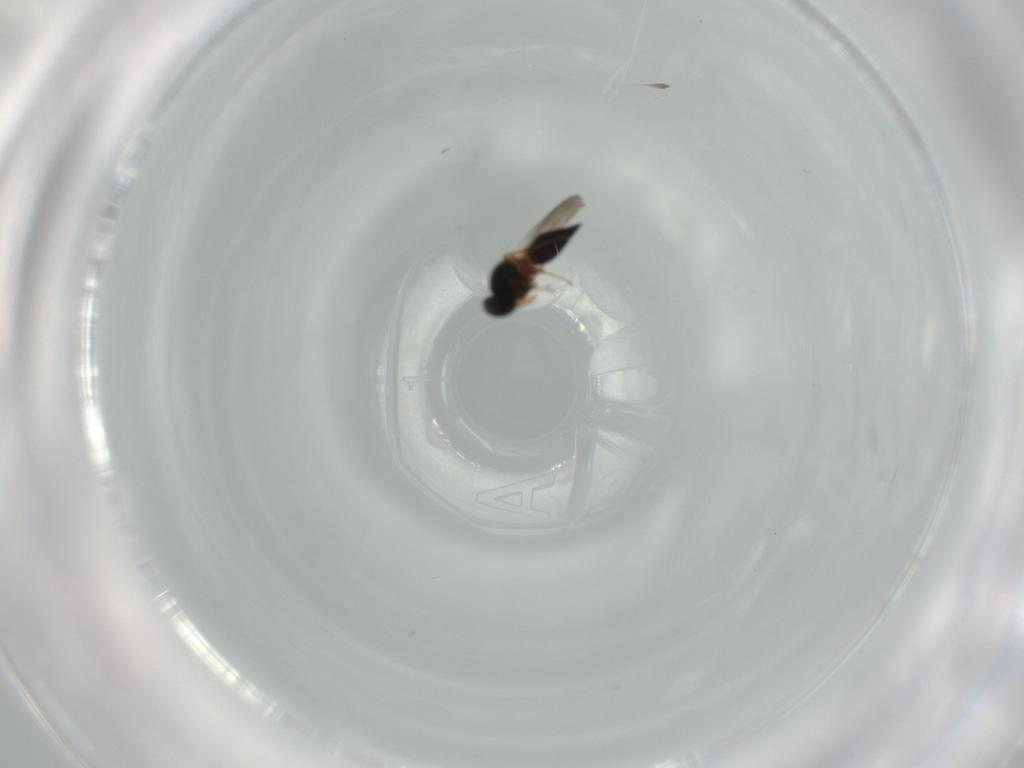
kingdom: Animalia
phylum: Arthropoda
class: Insecta
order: Hymenoptera
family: Platygastridae
